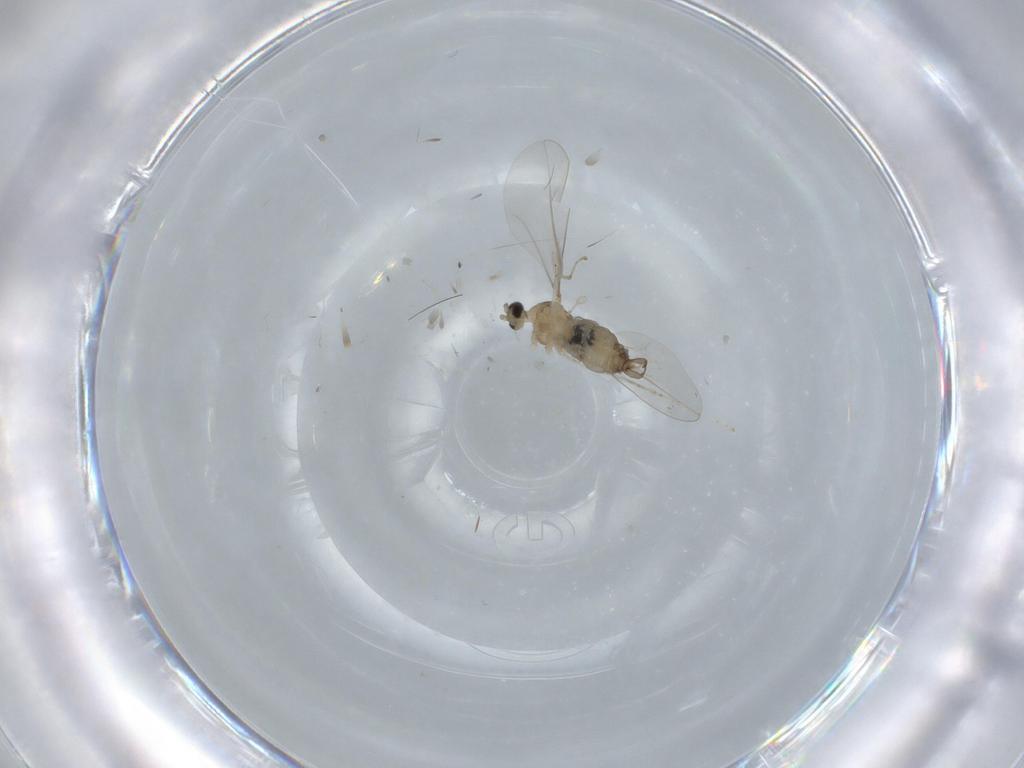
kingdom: Animalia
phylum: Arthropoda
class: Insecta
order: Diptera
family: Cecidomyiidae
